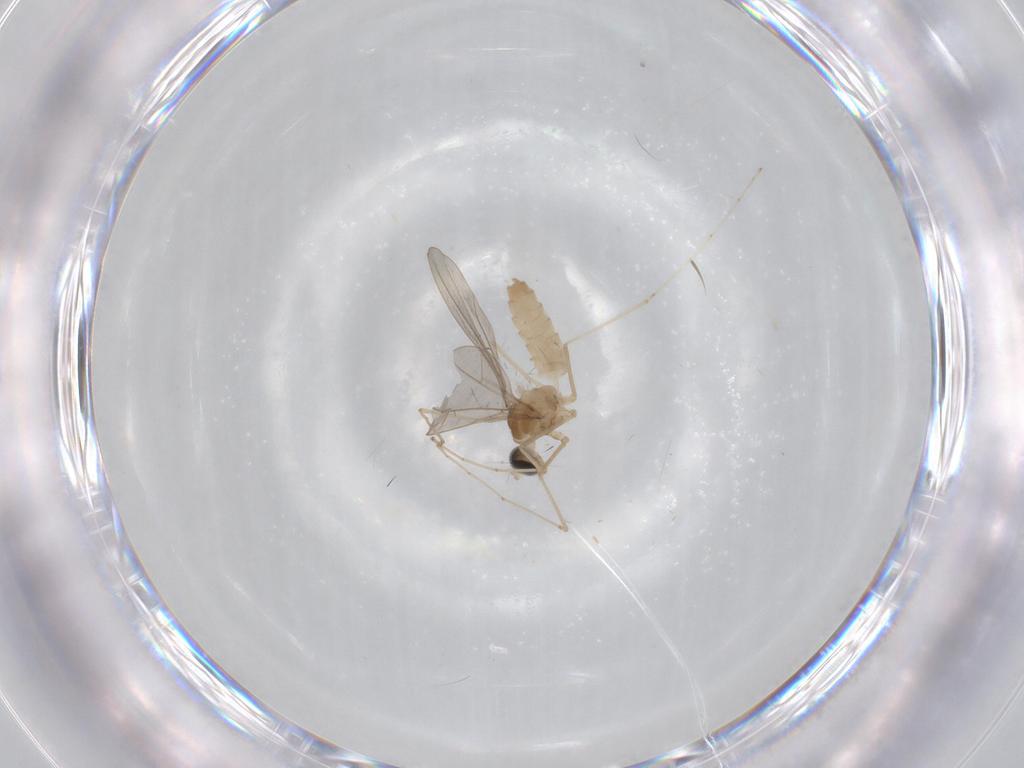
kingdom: Animalia
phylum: Arthropoda
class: Insecta
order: Diptera
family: Cecidomyiidae
